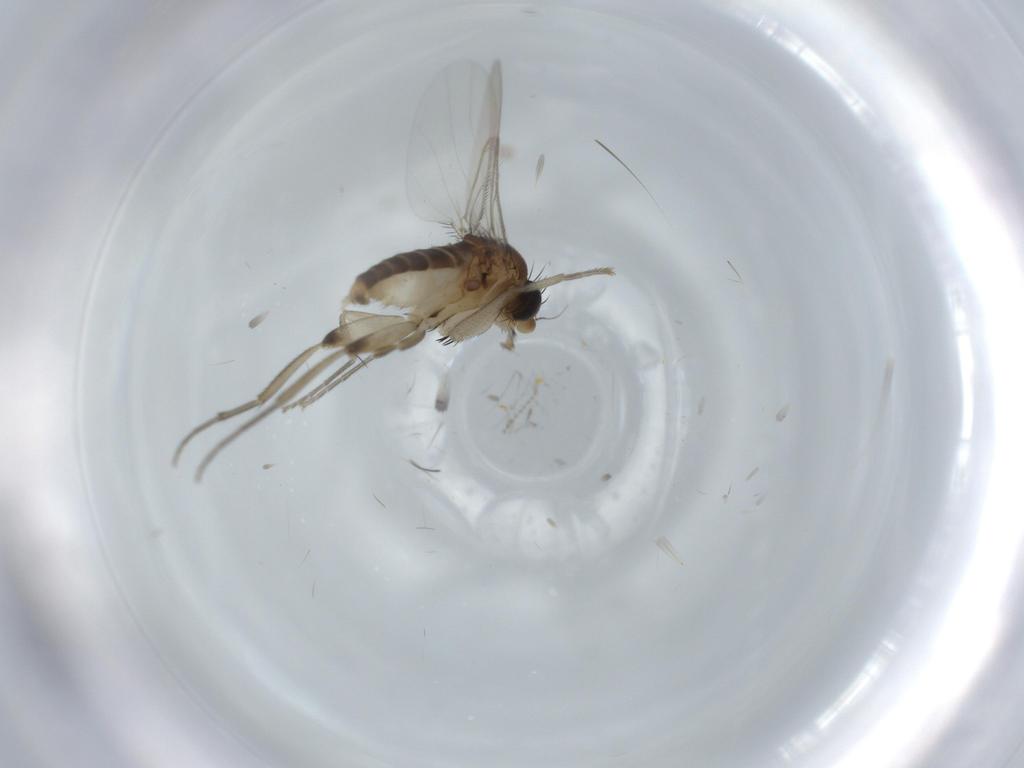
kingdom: Animalia
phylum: Arthropoda
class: Insecta
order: Diptera
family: Phoridae
